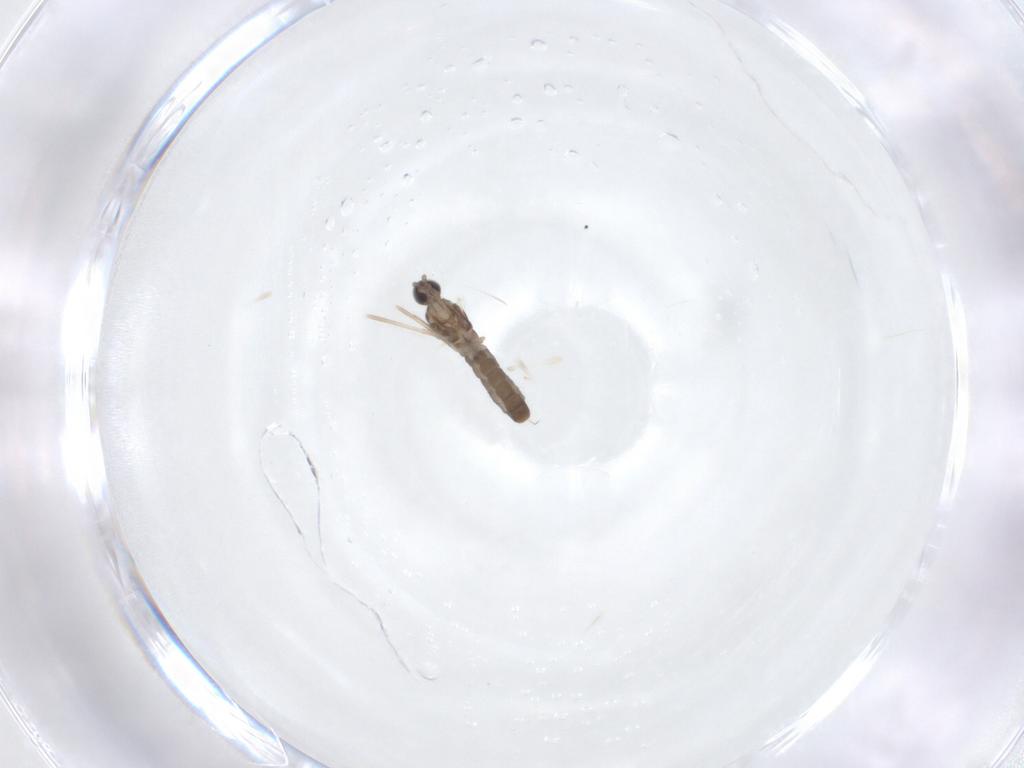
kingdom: Animalia
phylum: Arthropoda
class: Insecta
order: Diptera
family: Cecidomyiidae
